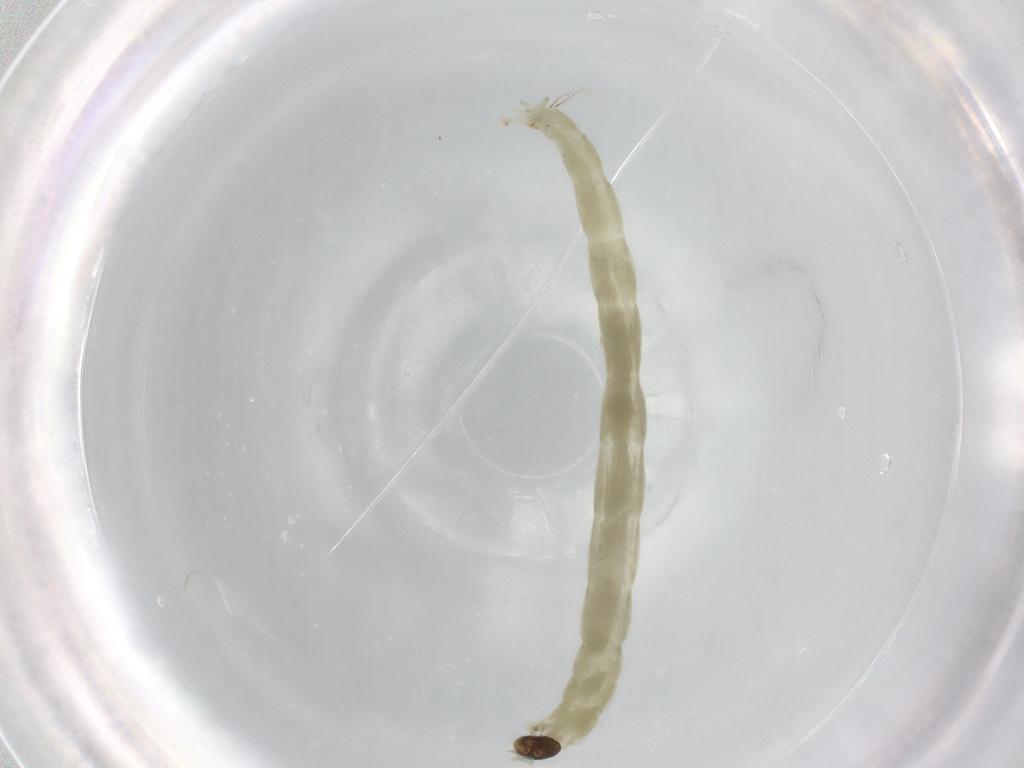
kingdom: Animalia
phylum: Arthropoda
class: Insecta
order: Diptera
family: Chironomidae
